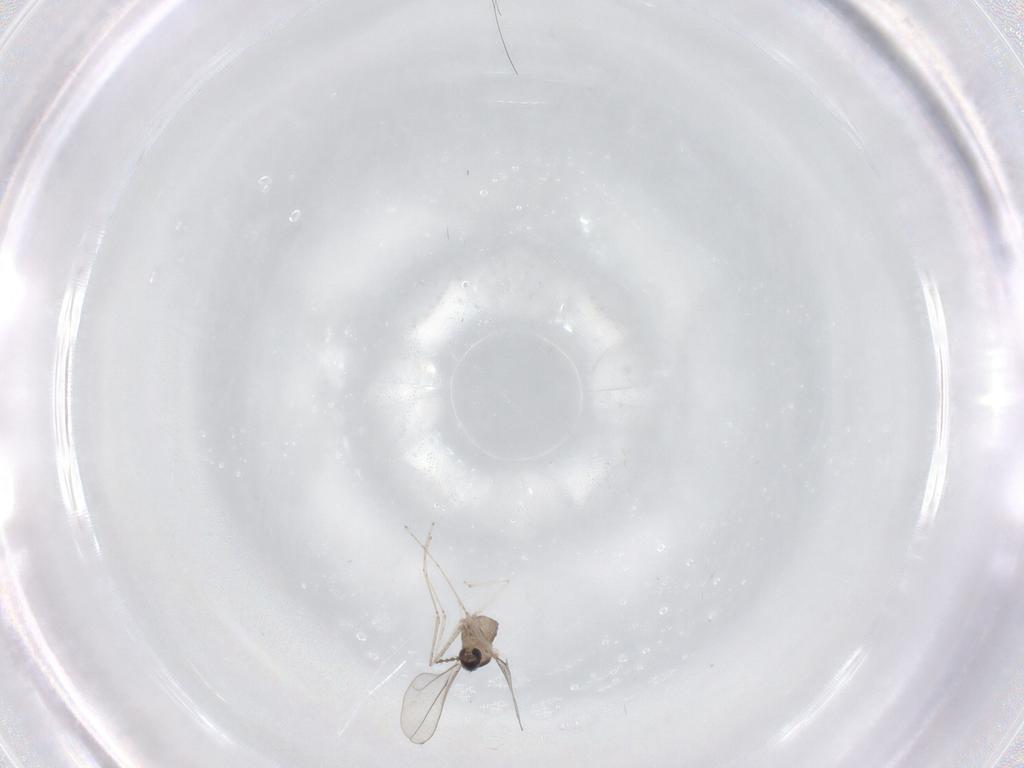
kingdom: Animalia
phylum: Arthropoda
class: Insecta
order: Diptera
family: Cecidomyiidae
